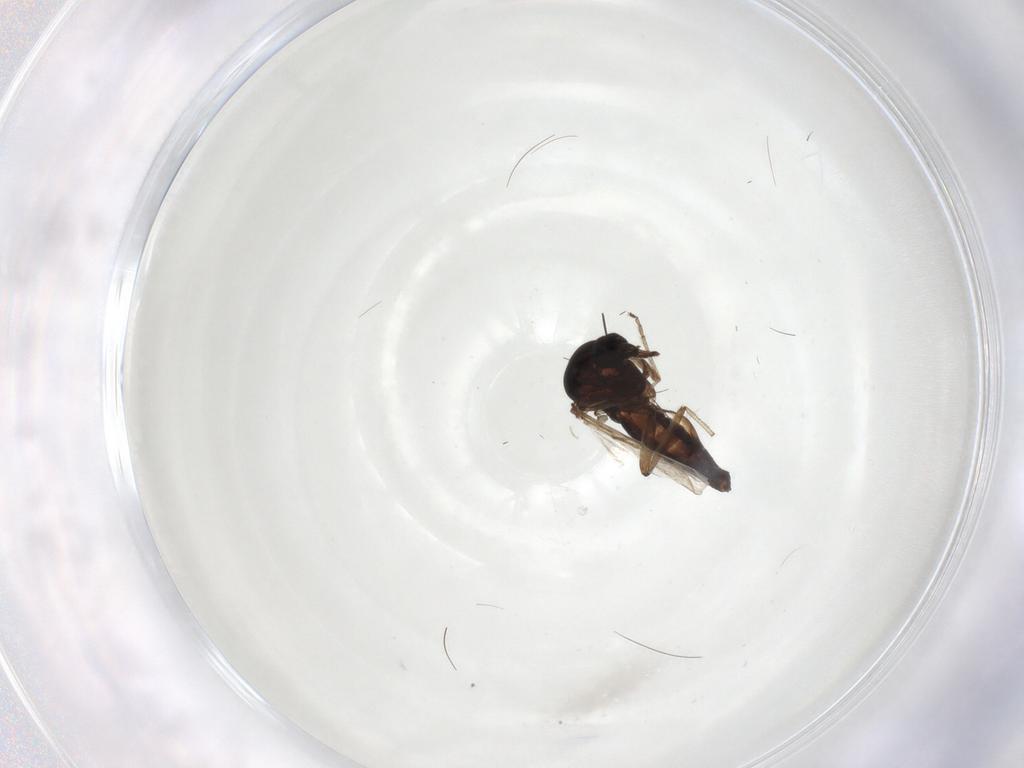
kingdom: Animalia
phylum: Arthropoda
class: Insecta
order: Diptera
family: Ceratopogonidae
